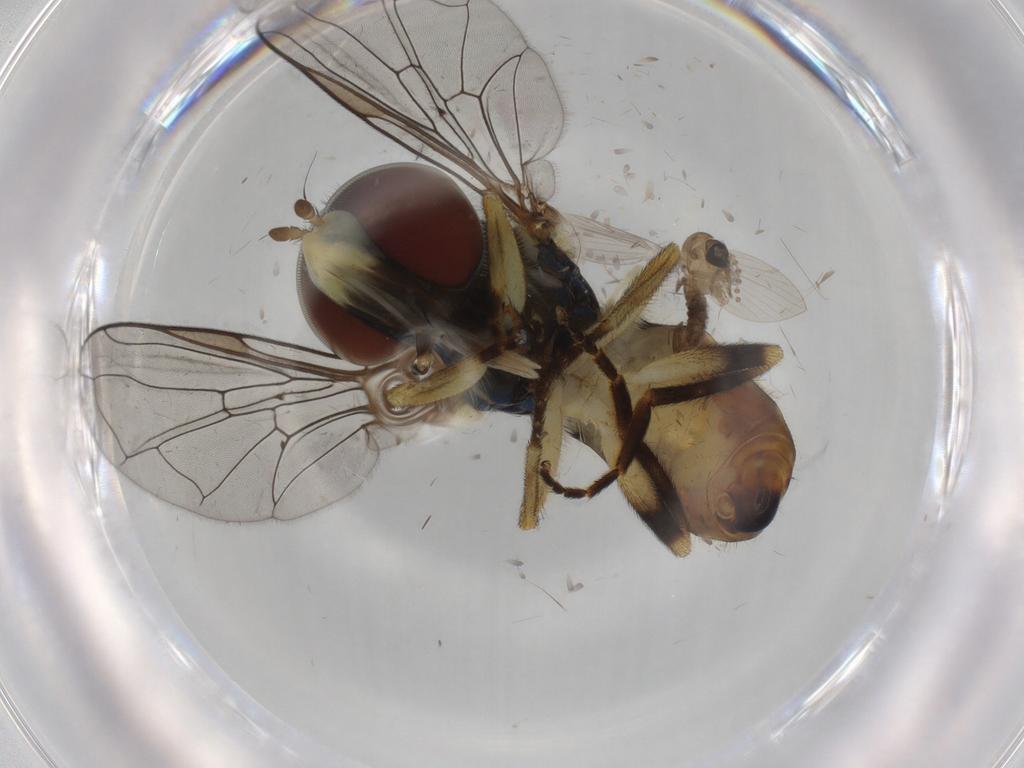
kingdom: Animalia
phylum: Arthropoda
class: Insecta
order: Diptera
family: Drosophilidae
